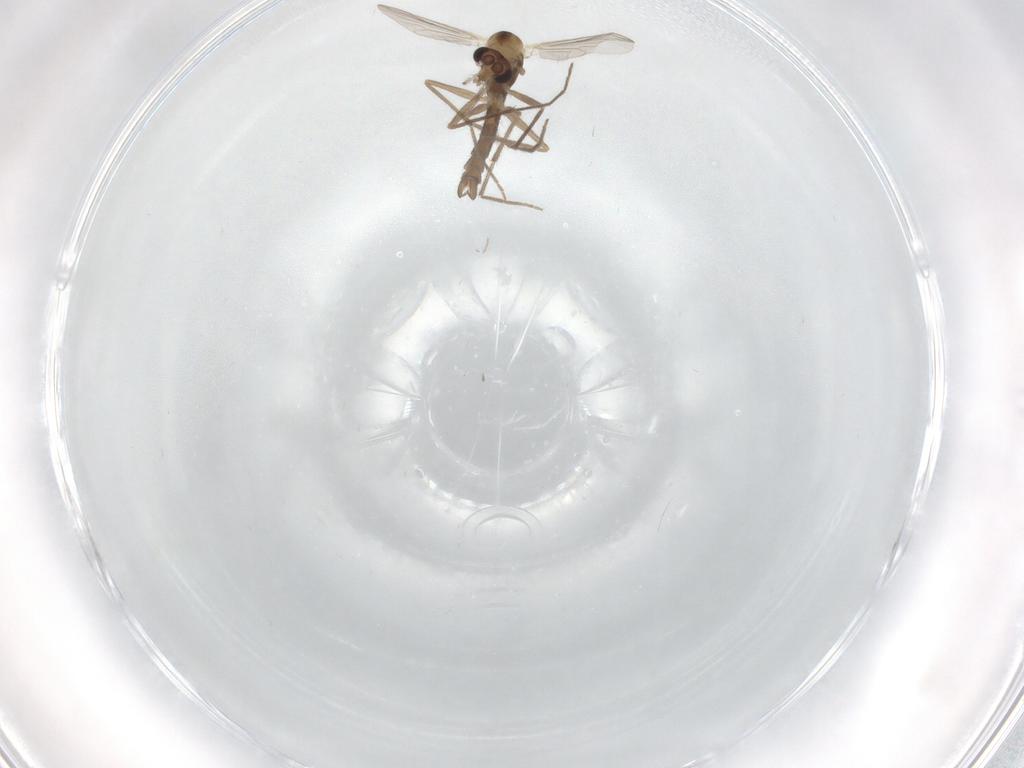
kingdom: Animalia
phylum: Arthropoda
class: Insecta
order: Diptera
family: Chironomidae
